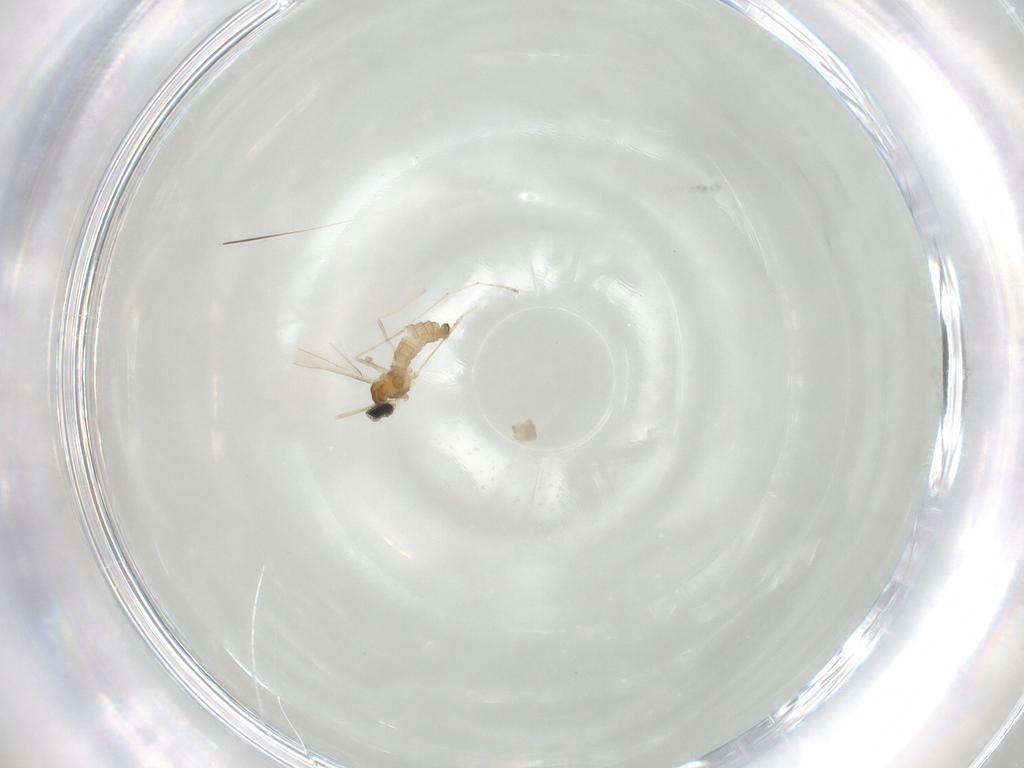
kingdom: Animalia
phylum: Arthropoda
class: Insecta
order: Diptera
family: Cecidomyiidae
